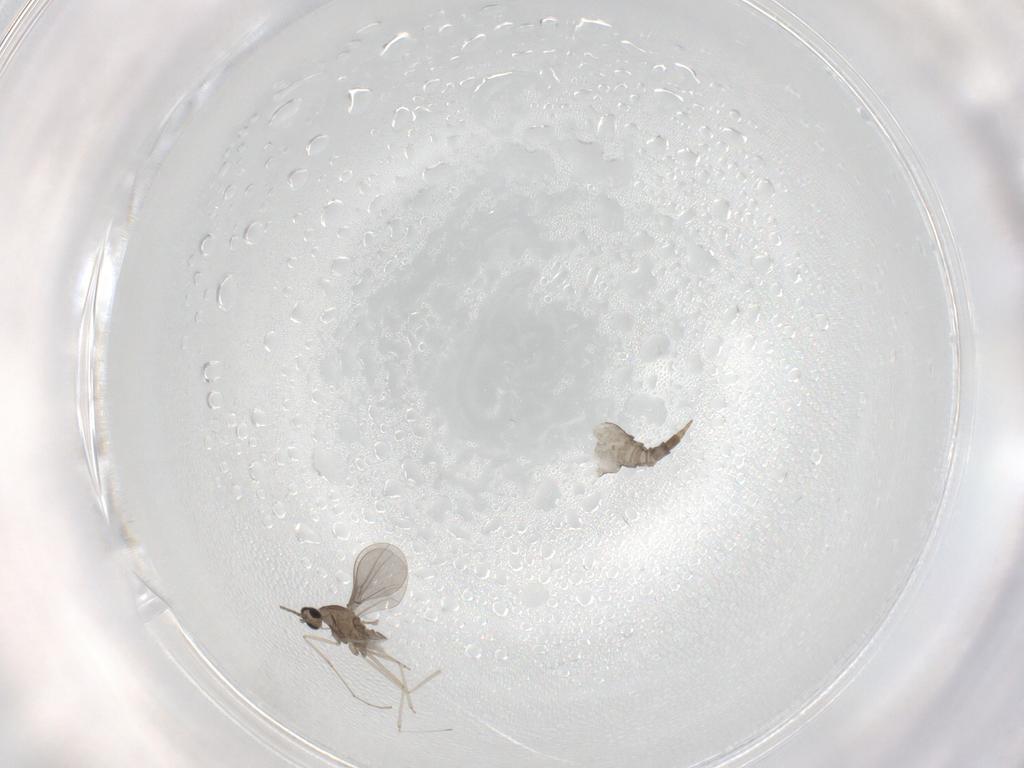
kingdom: Animalia
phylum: Arthropoda
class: Insecta
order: Diptera
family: Cecidomyiidae
